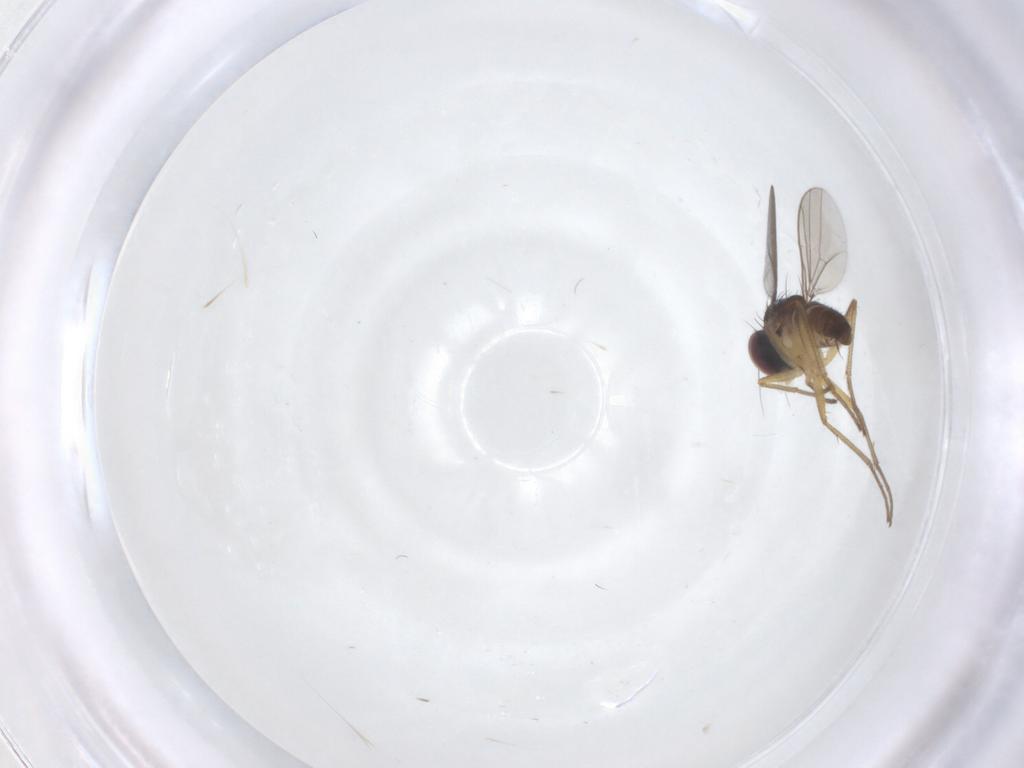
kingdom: Animalia
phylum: Arthropoda
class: Insecta
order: Diptera
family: Dolichopodidae
